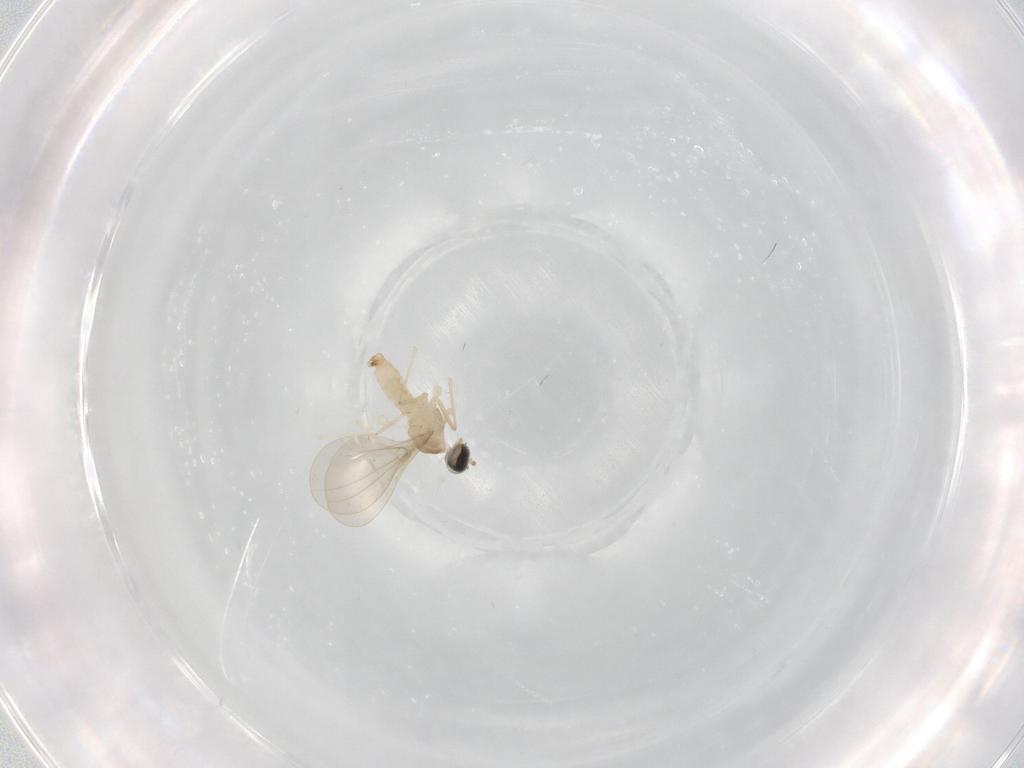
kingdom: Animalia
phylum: Arthropoda
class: Insecta
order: Diptera
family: Cecidomyiidae
